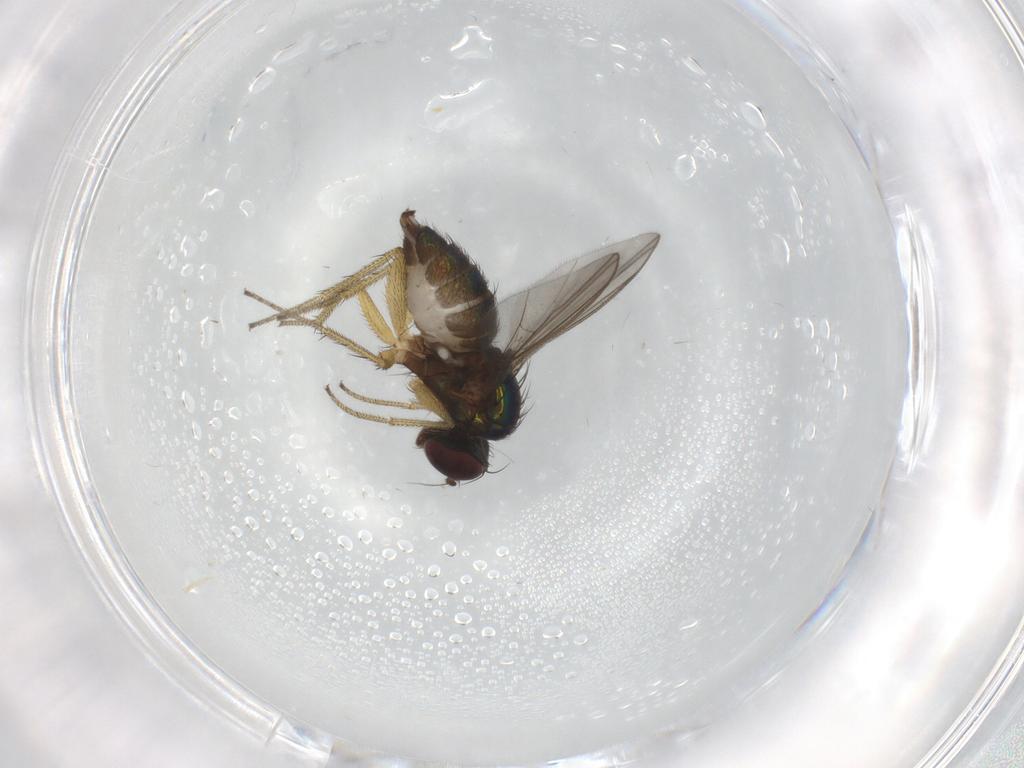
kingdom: Animalia
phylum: Arthropoda
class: Insecta
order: Diptera
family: Dolichopodidae
